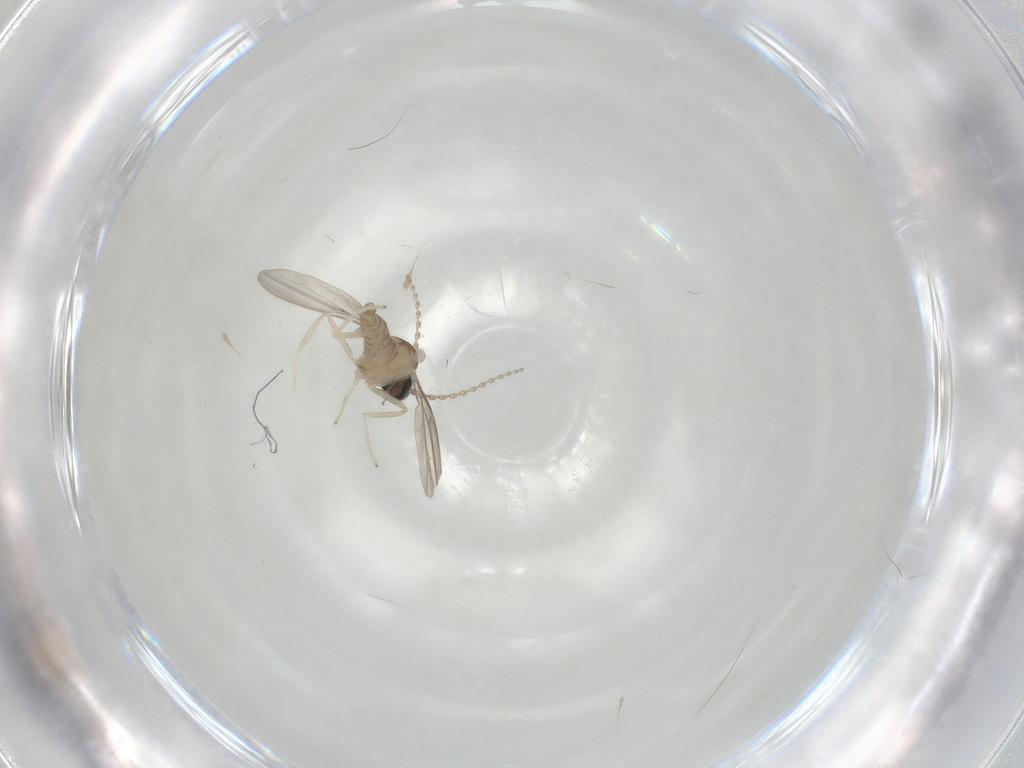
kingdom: Animalia
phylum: Arthropoda
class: Insecta
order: Diptera
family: Cecidomyiidae
